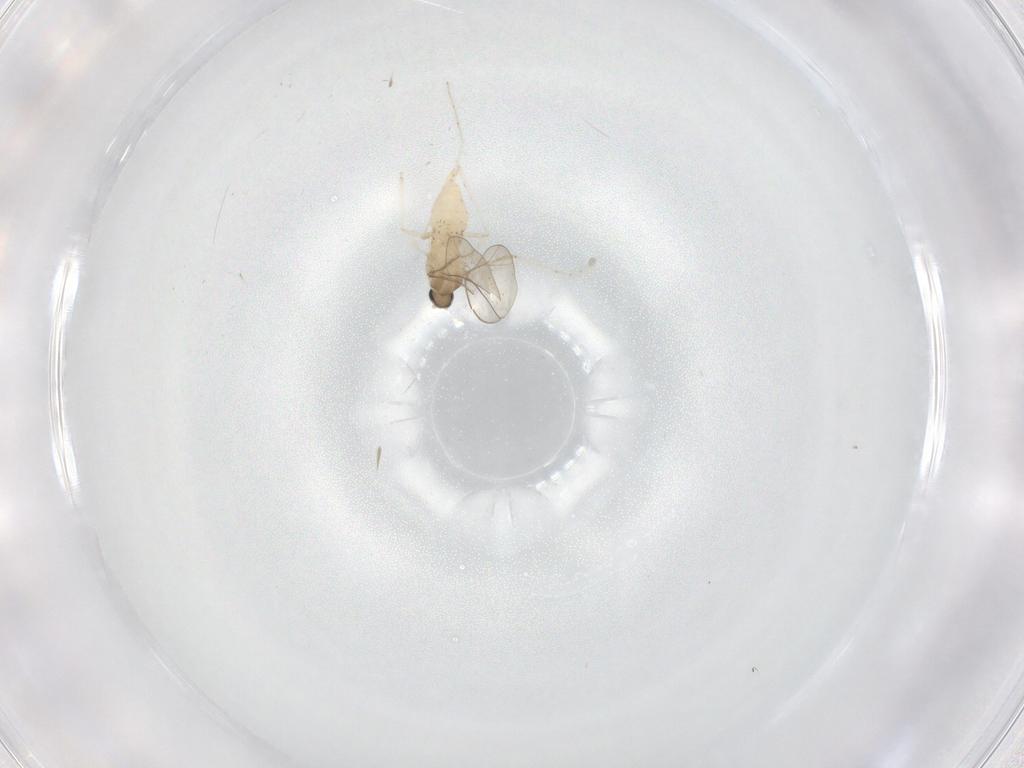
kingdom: Animalia
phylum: Arthropoda
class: Insecta
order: Diptera
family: Cecidomyiidae
